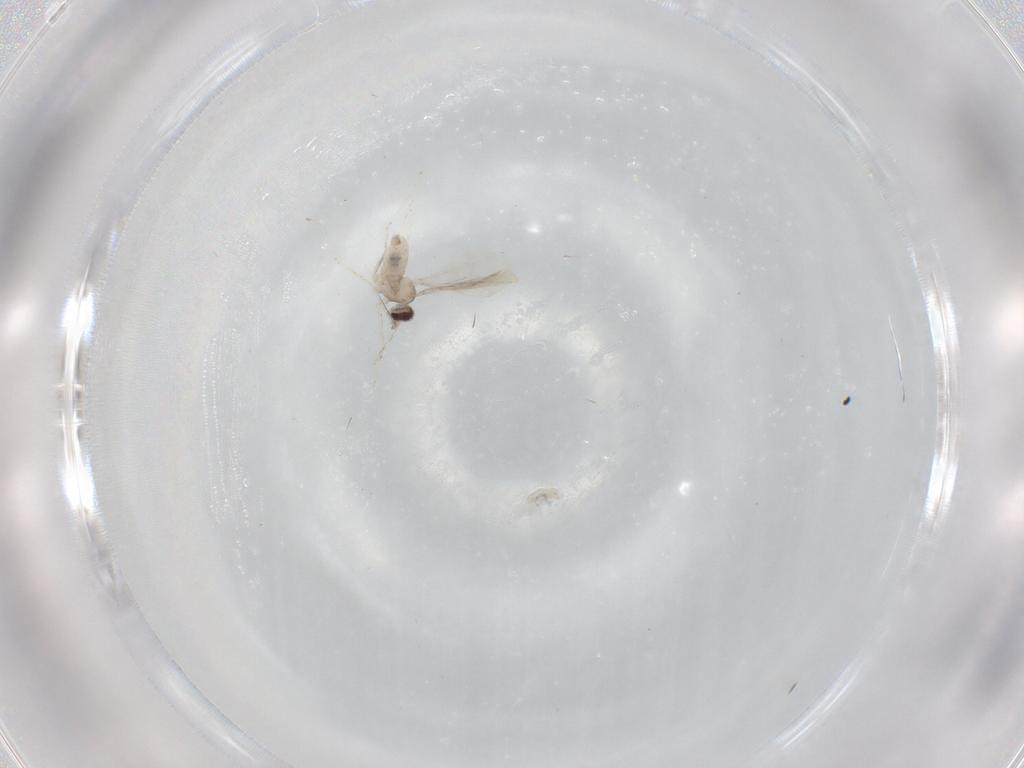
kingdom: Animalia
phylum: Arthropoda
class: Insecta
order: Diptera
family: Cecidomyiidae
